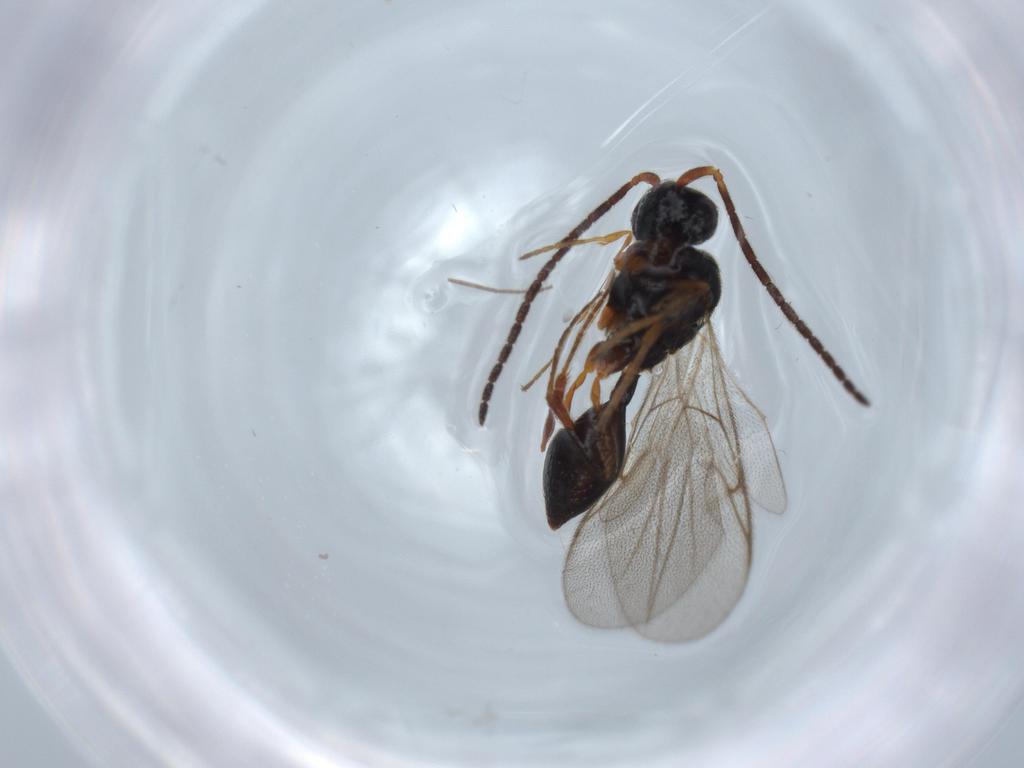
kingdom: Animalia
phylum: Arthropoda
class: Insecta
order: Hymenoptera
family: Diapriidae
